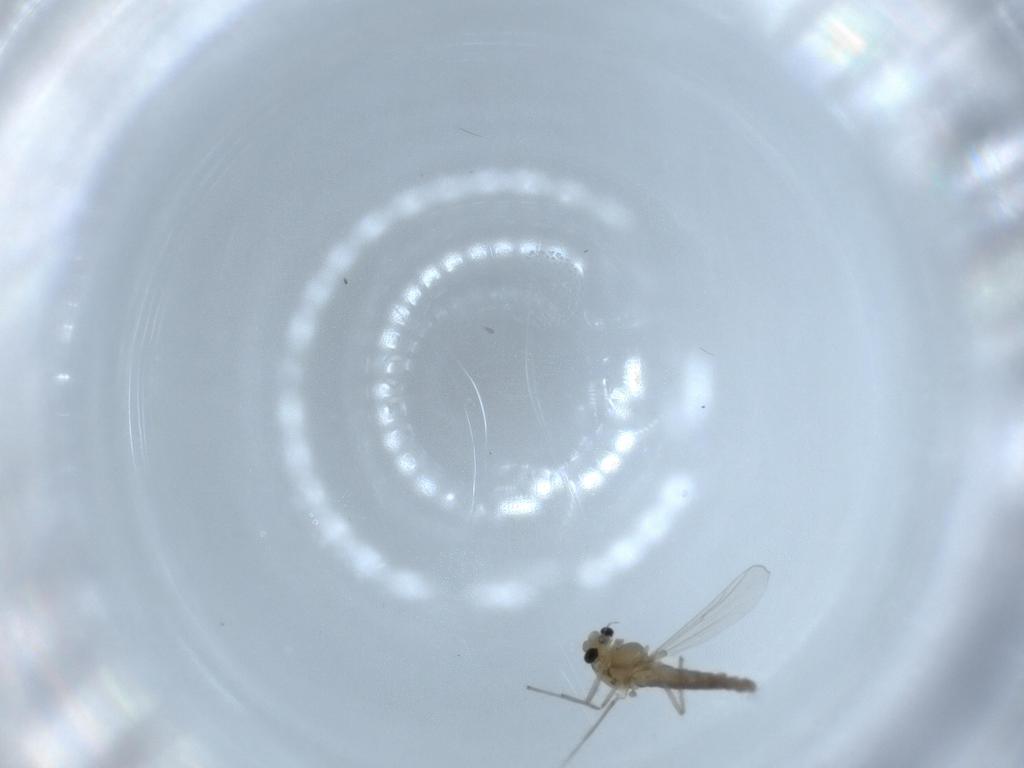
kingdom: Animalia
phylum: Arthropoda
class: Insecta
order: Diptera
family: Chironomidae
